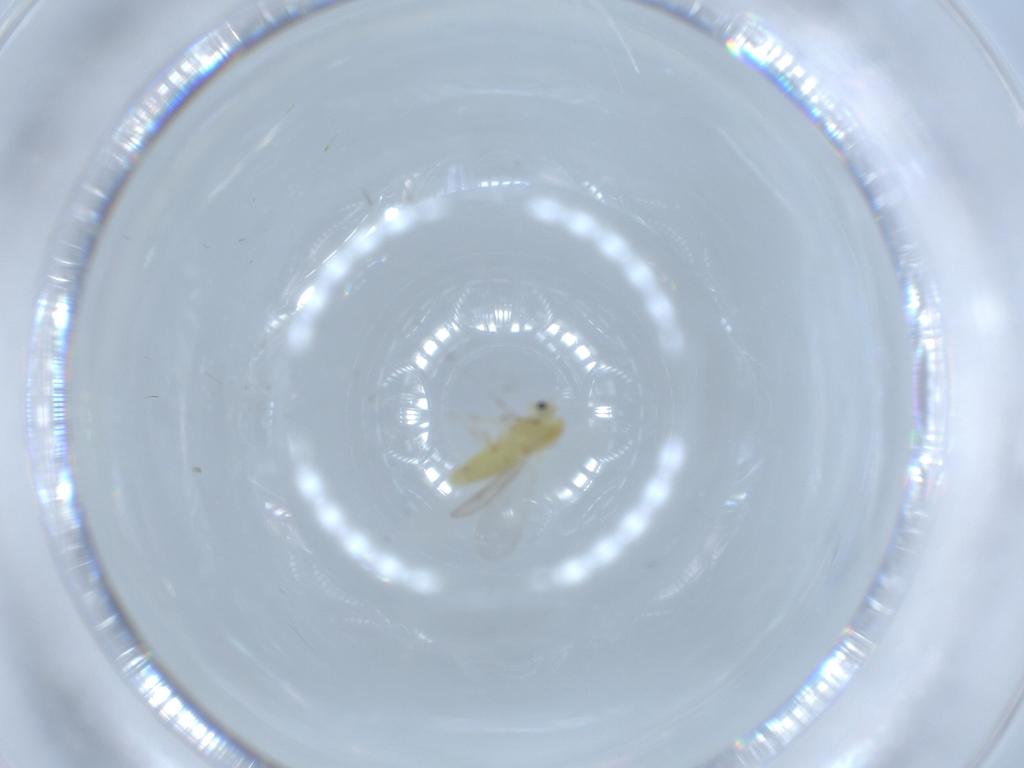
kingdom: Animalia
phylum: Arthropoda
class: Insecta
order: Diptera
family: Chironomidae
